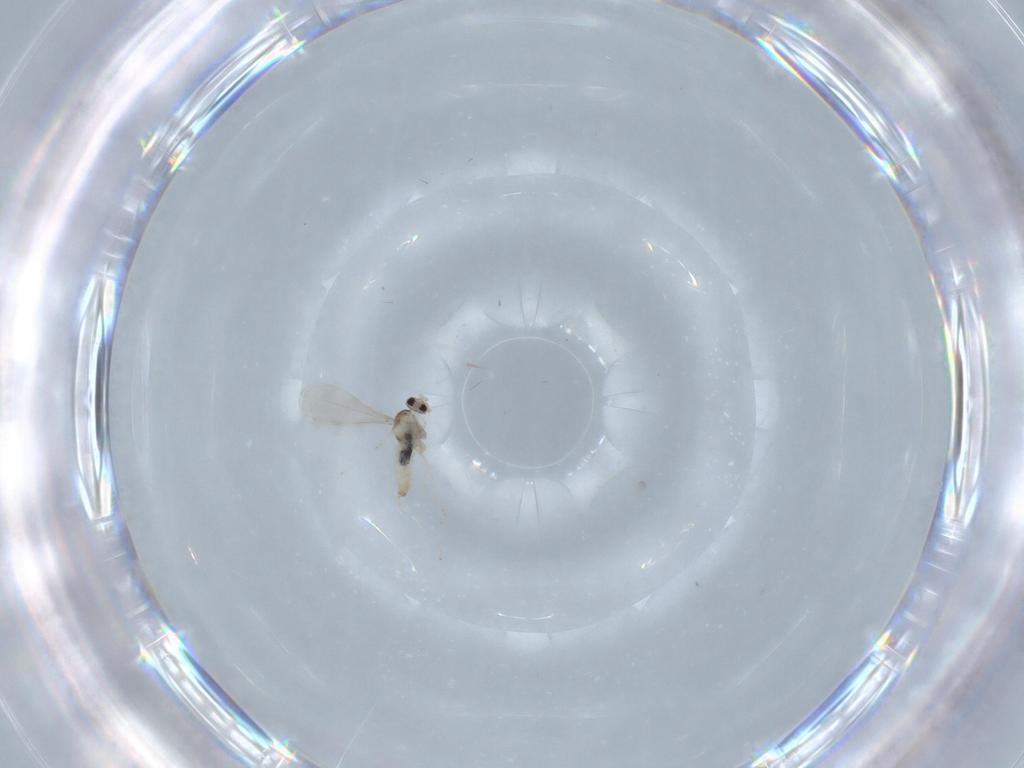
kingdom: Animalia
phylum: Arthropoda
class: Insecta
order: Diptera
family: Cecidomyiidae
